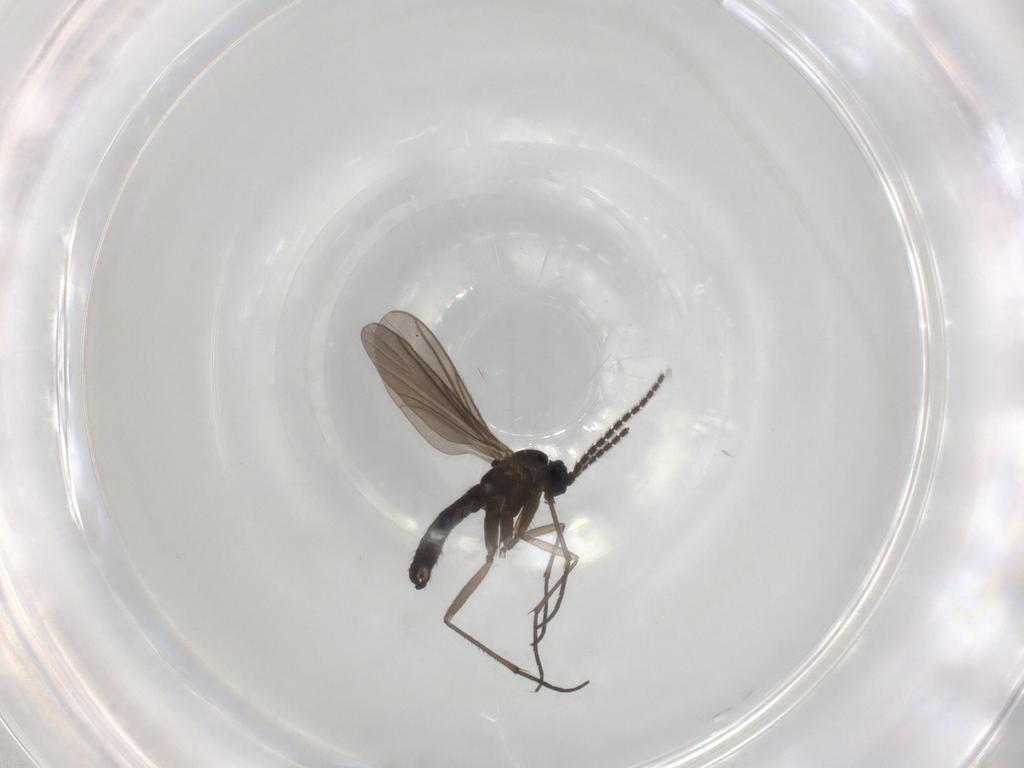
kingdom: Animalia
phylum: Arthropoda
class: Insecta
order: Diptera
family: Sciaridae
